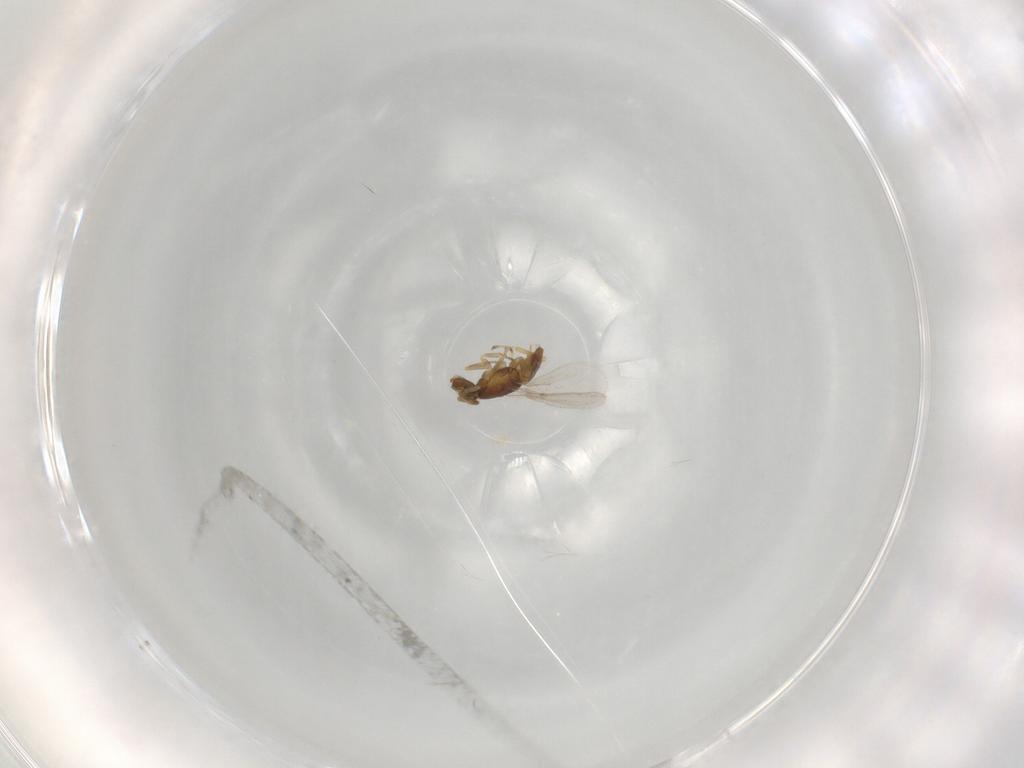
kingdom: Animalia
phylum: Arthropoda
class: Insecta
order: Hymenoptera
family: Encyrtidae
